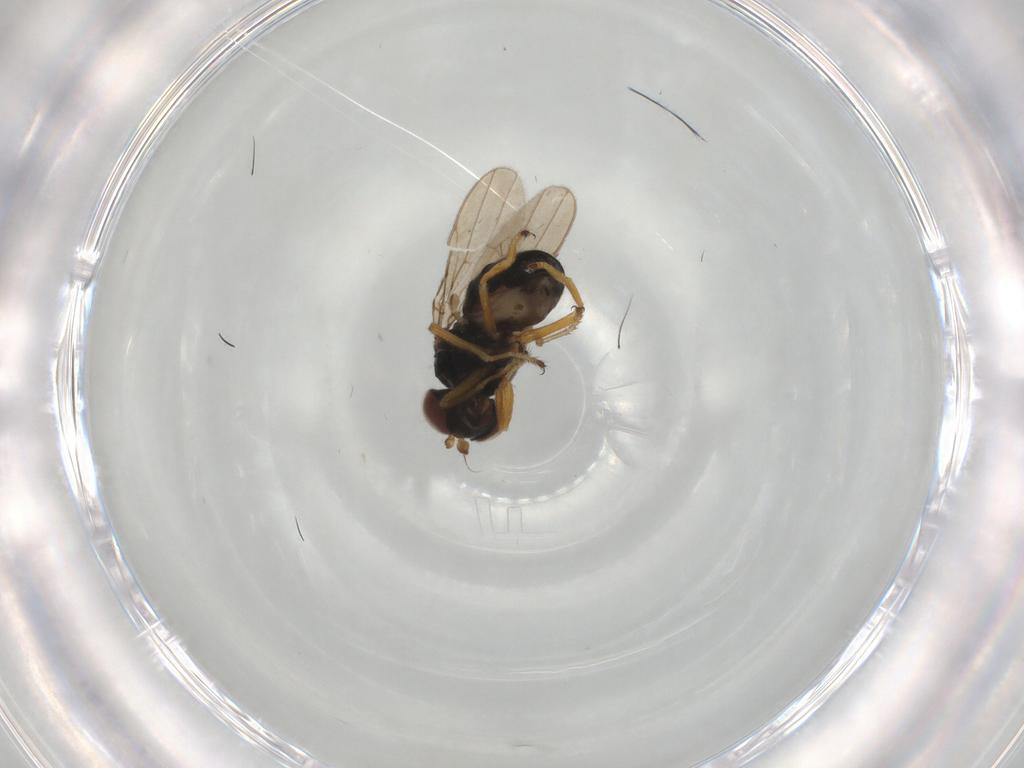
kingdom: Animalia
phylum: Arthropoda
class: Insecta
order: Diptera
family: Ephydridae
